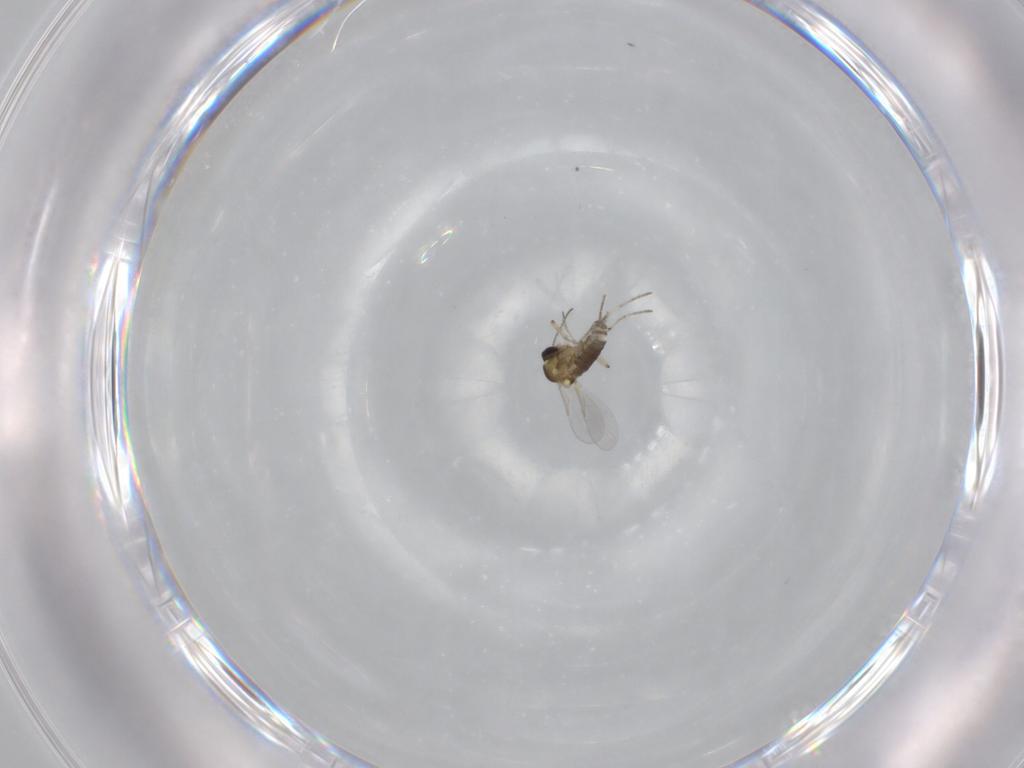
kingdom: Animalia
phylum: Arthropoda
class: Insecta
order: Diptera
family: Ceratopogonidae
